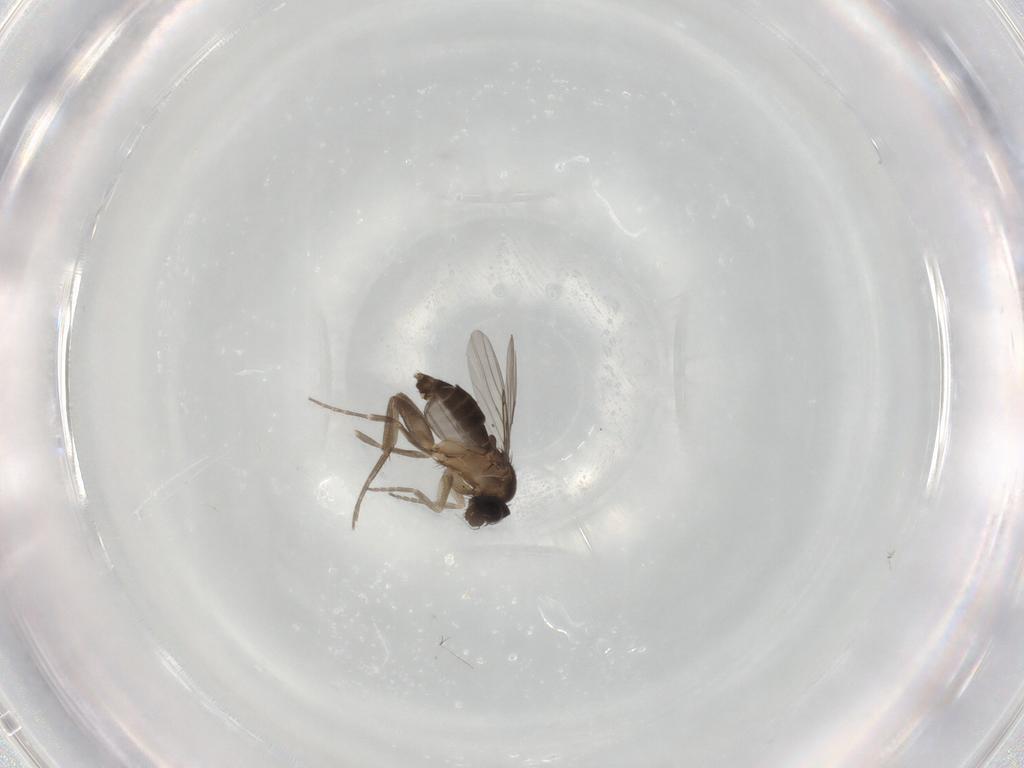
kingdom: Animalia
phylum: Arthropoda
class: Insecta
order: Diptera
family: Phoridae
